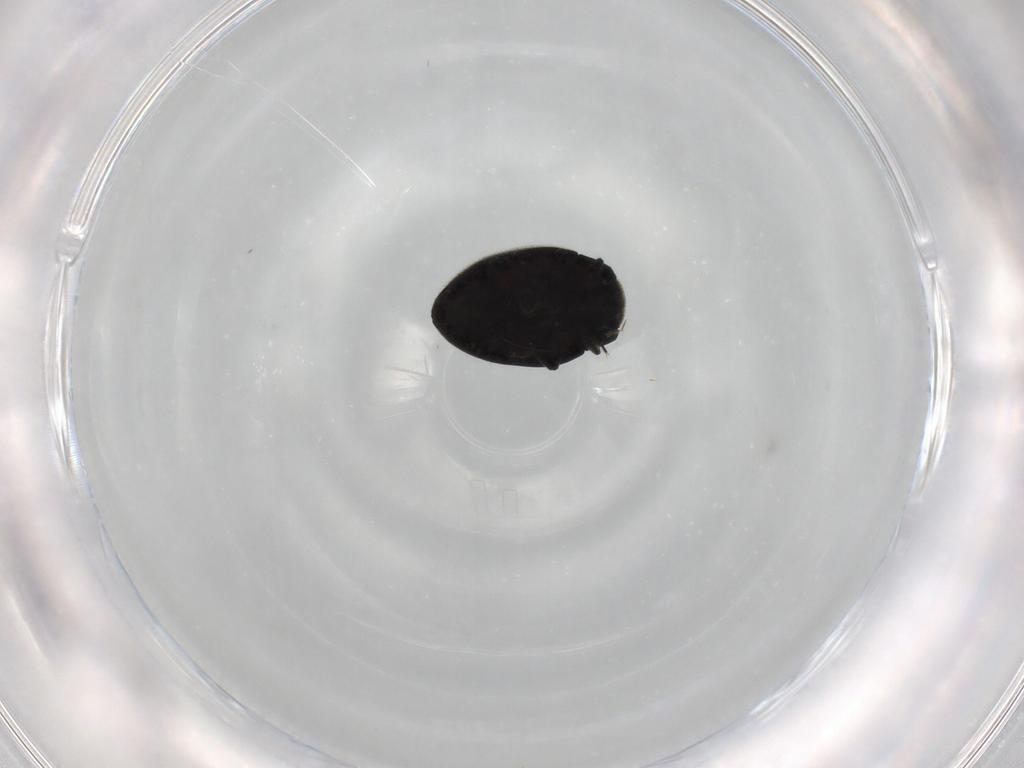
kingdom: Animalia
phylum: Arthropoda
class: Insecta
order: Coleoptera
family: Limnichidae
